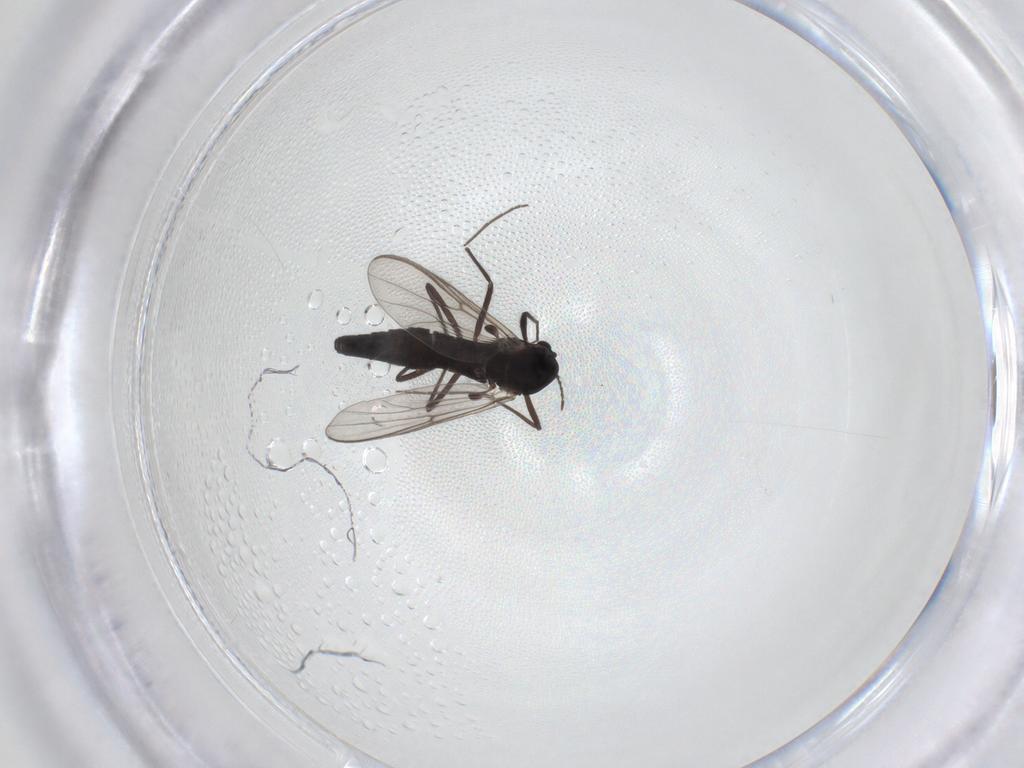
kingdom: Animalia
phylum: Arthropoda
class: Insecta
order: Diptera
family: Chironomidae
